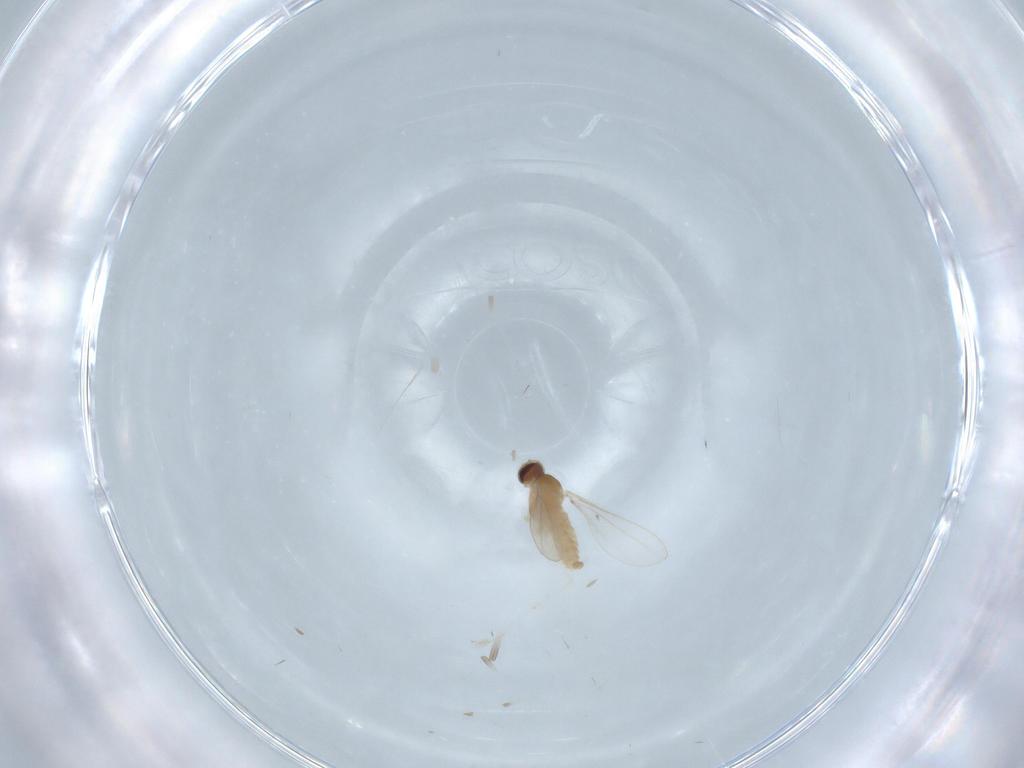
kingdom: Animalia
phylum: Arthropoda
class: Insecta
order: Diptera
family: Cecidomyiidae
